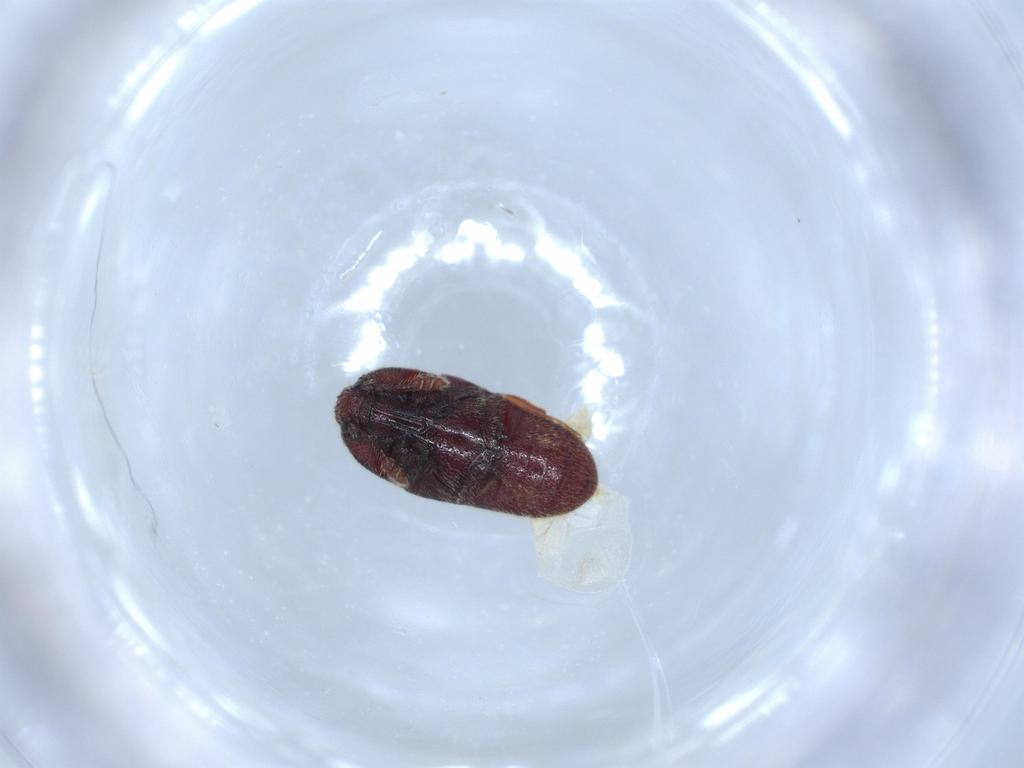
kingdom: Animalia
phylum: Arthropoda
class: Insecta
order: Coleoptera
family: Throscidae
